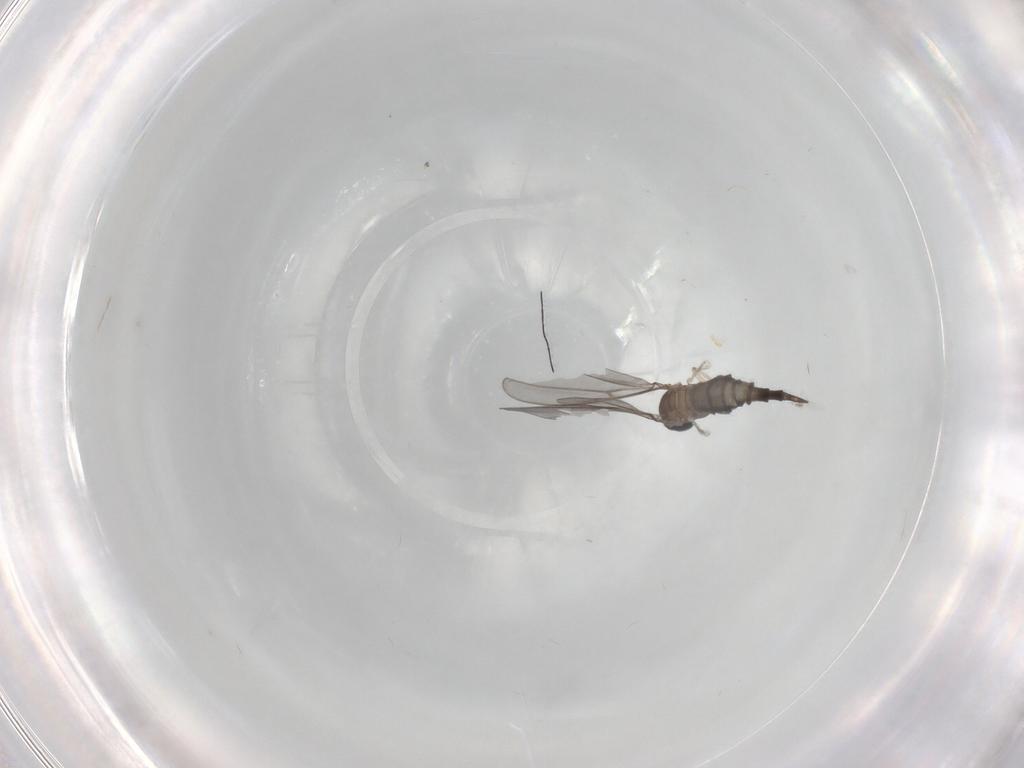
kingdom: Animalia
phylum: Arthropoda
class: Insecta
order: Diptera
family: Cecidomyiidae
